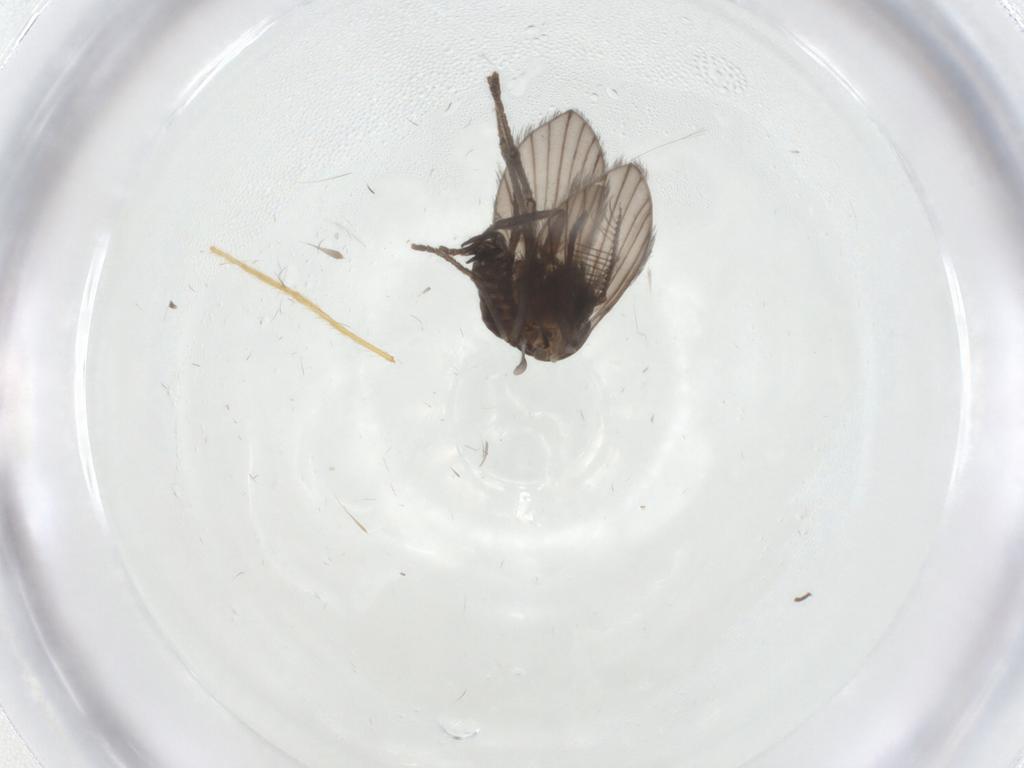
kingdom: Animalia
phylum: Arthropoda
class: Insecta
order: Diptera
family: Chironomidae
